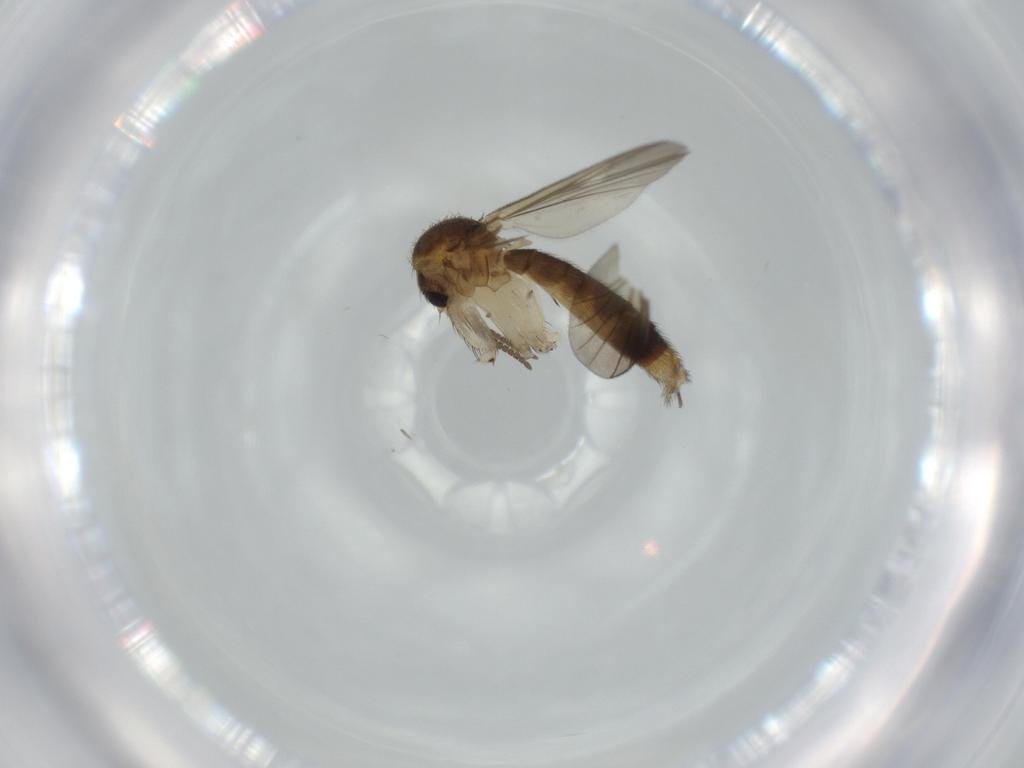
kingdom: Animalia
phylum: Arthropoda
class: Insecta
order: Diptera
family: Mycetophilidae
